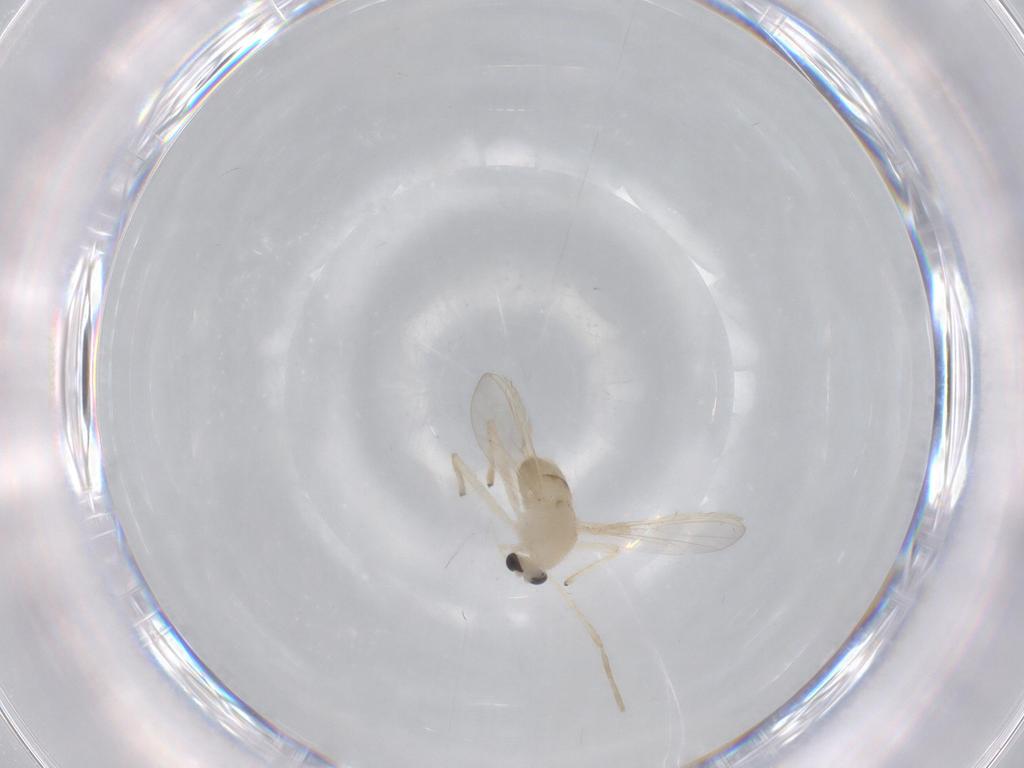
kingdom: Animalia
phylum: Arthropoda
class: Insecta
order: Diptera
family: Chironomidae
